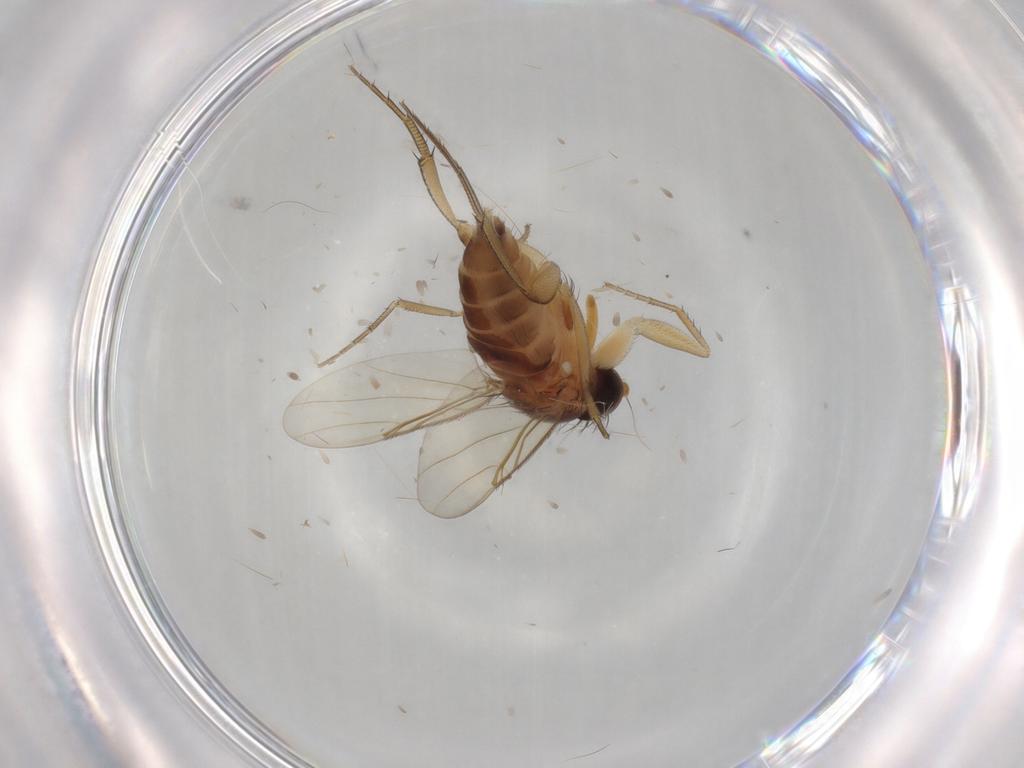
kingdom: Animalia
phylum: Arthropoda
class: Insecta
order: Diptera
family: Phoridae
